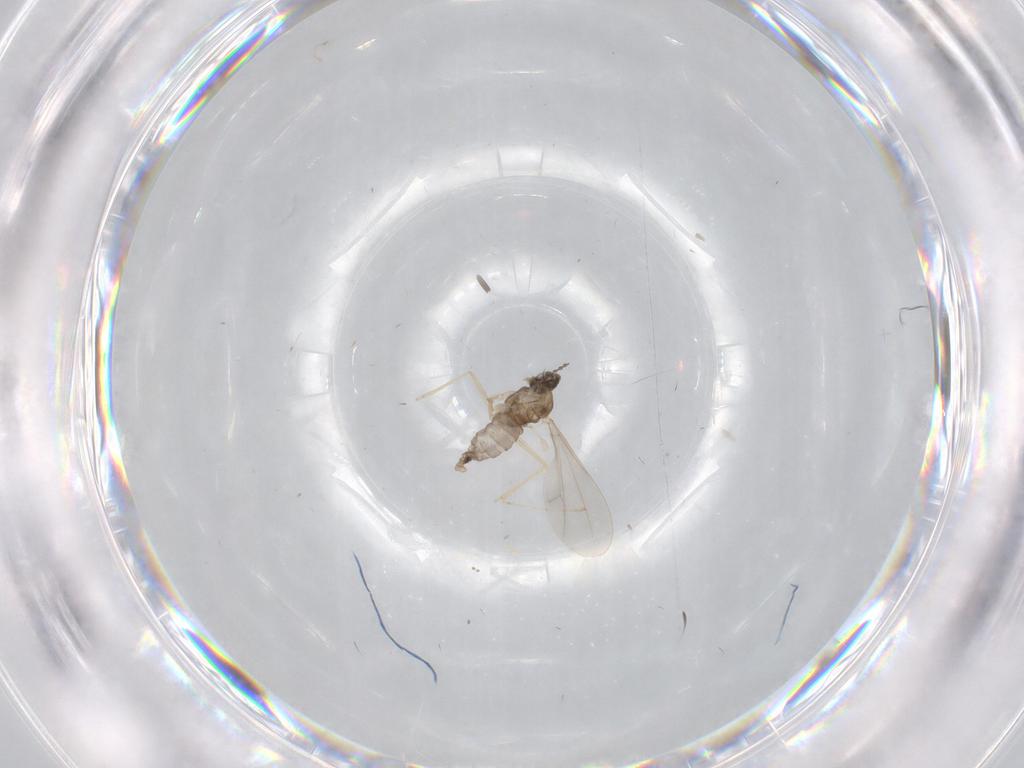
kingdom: Animalia
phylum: Arthropoda
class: Insecta
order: Diptera
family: Cecidomyiidae
